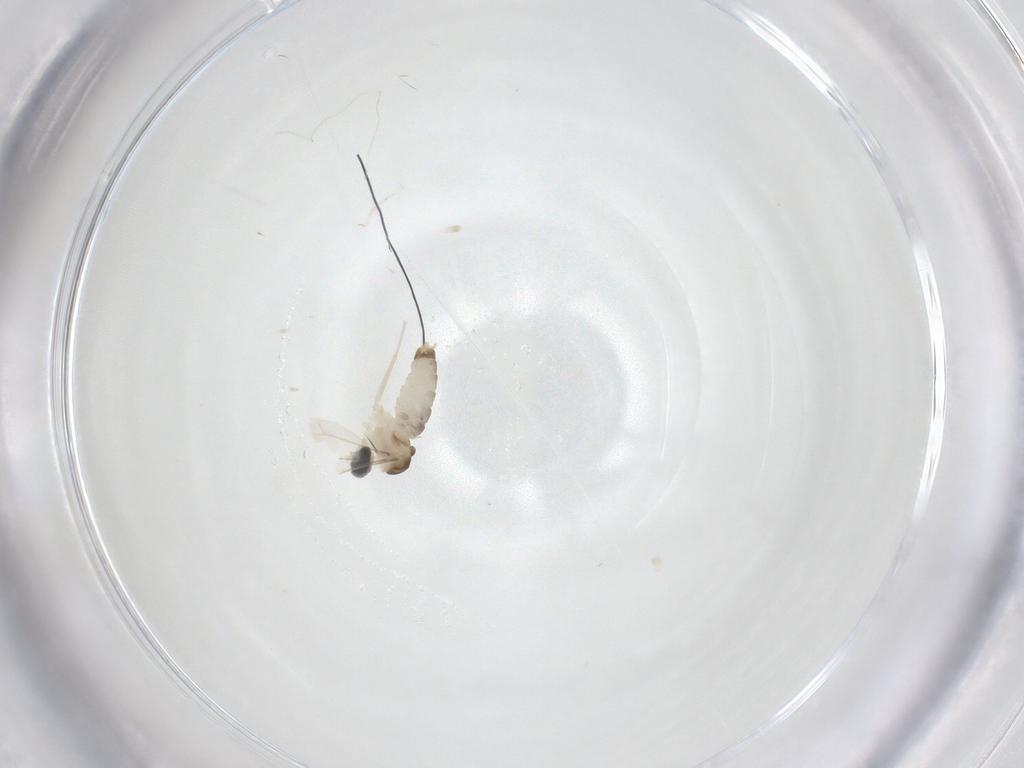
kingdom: Animalia
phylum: Arthropoda
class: Insecta
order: Diptera
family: Cecidomyiidae
